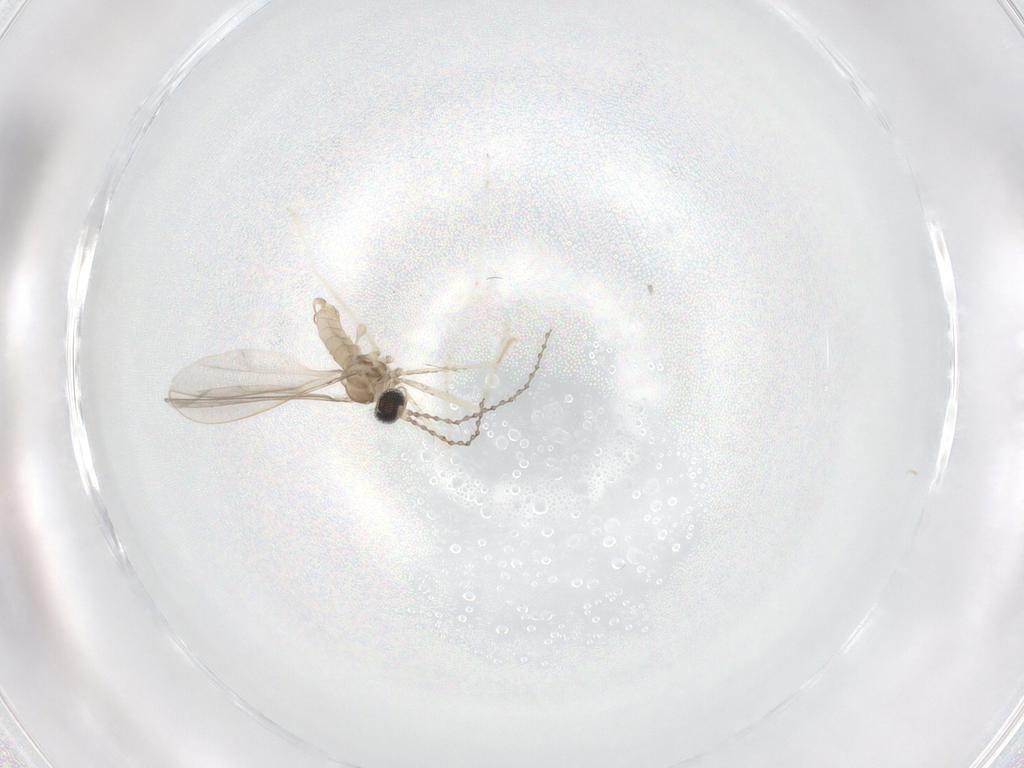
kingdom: Animalia
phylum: Arthropoda
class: Insecta
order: Diptera
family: Cecidomyiidae
